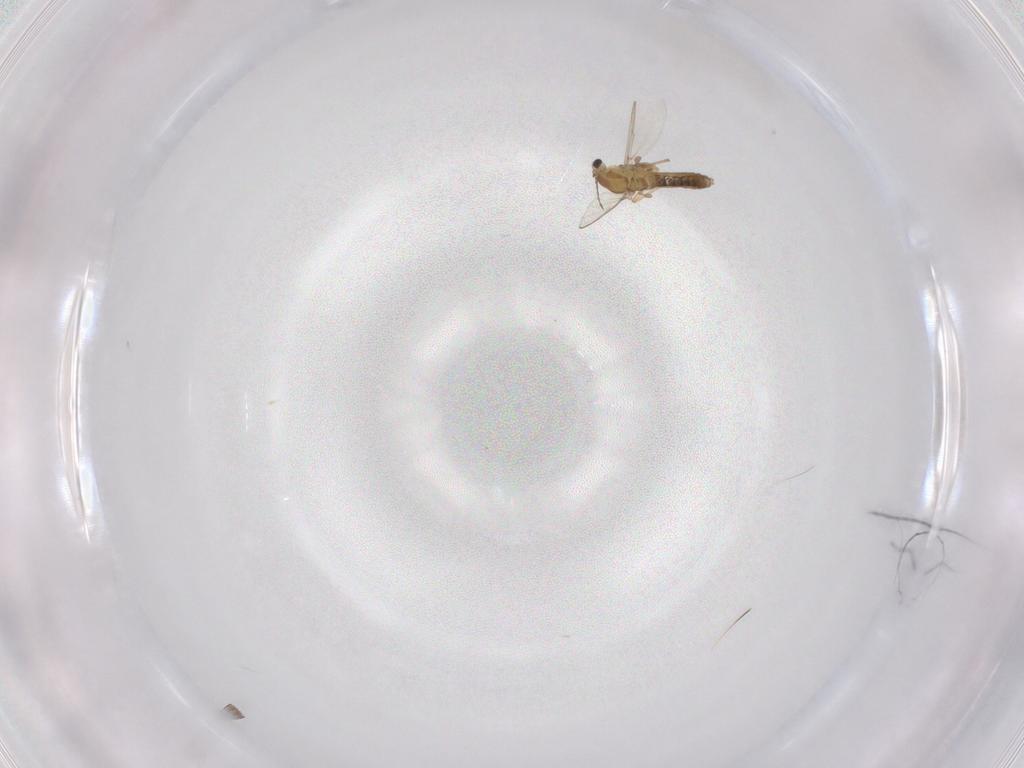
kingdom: Animalia
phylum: Arthropoda
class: Insecta
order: Diptera
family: Chironomidae
